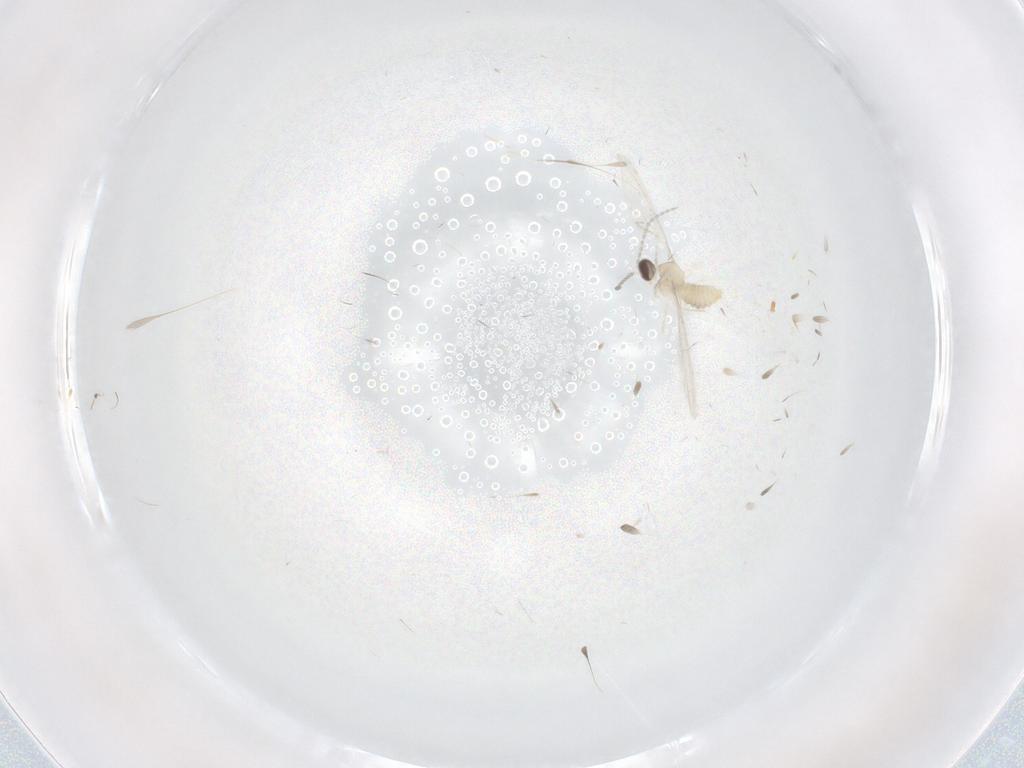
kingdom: Animalia
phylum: Arthropoda
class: Insecta
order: Diptera
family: Cecidomyiidae
